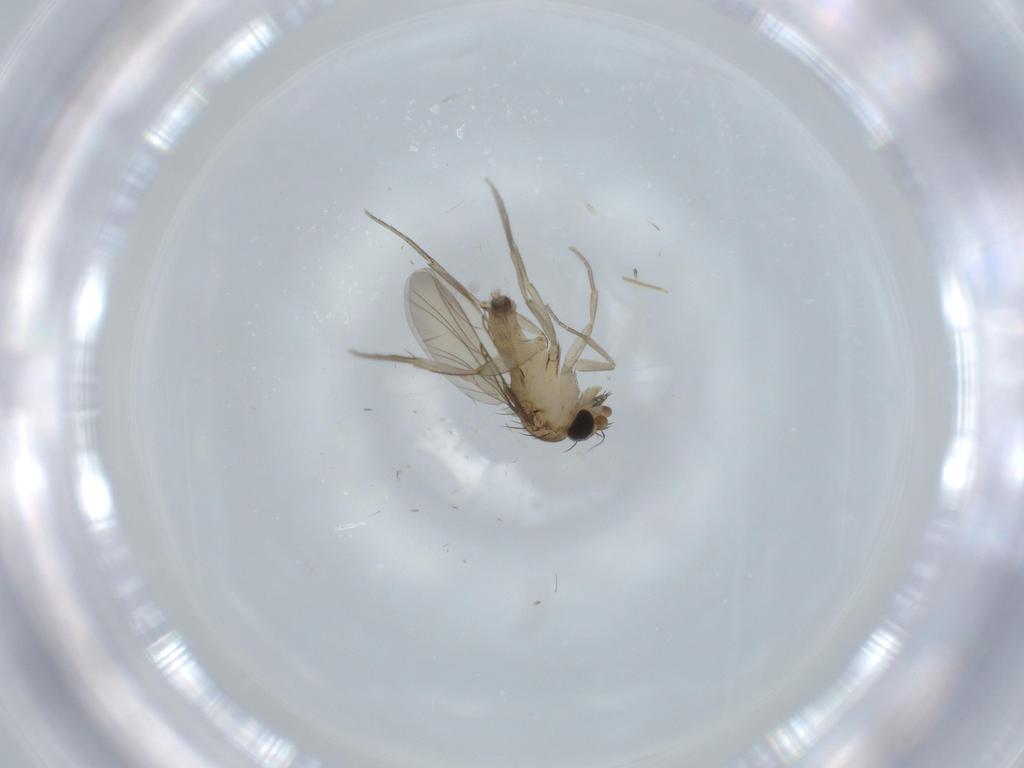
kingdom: Animalia
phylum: Arthropoda
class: Insecta
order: Diptera
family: Phoridae
